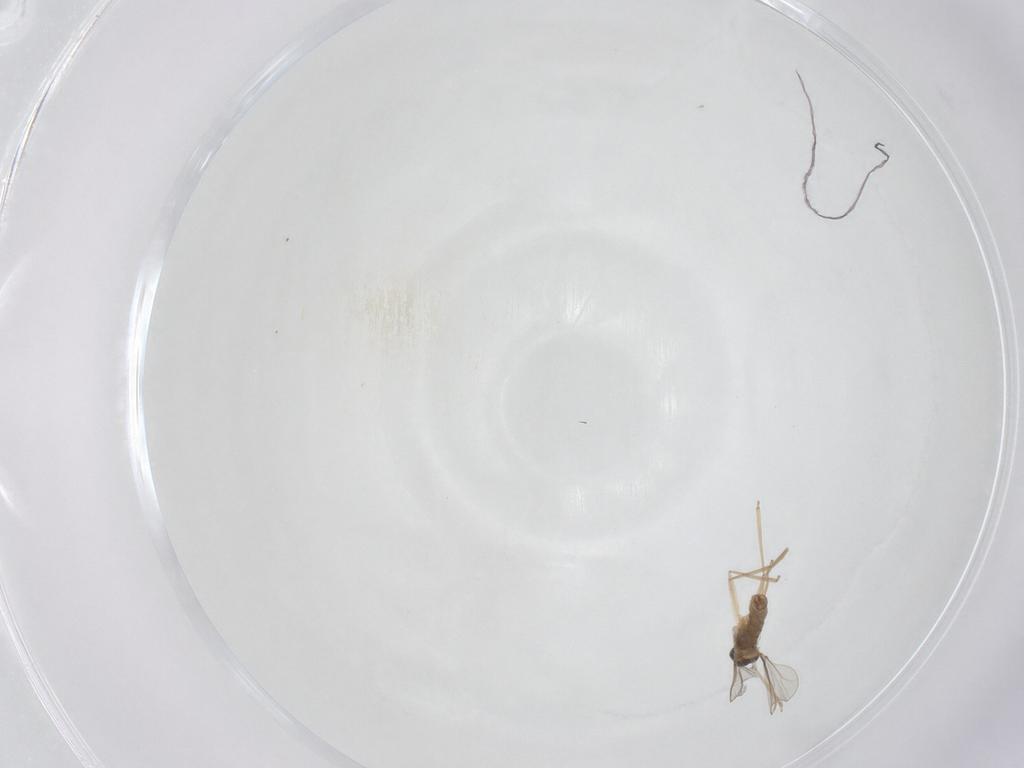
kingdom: Animalia
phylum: Arthropoda
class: Insecta
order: Diptera
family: Cecidomyiidae
